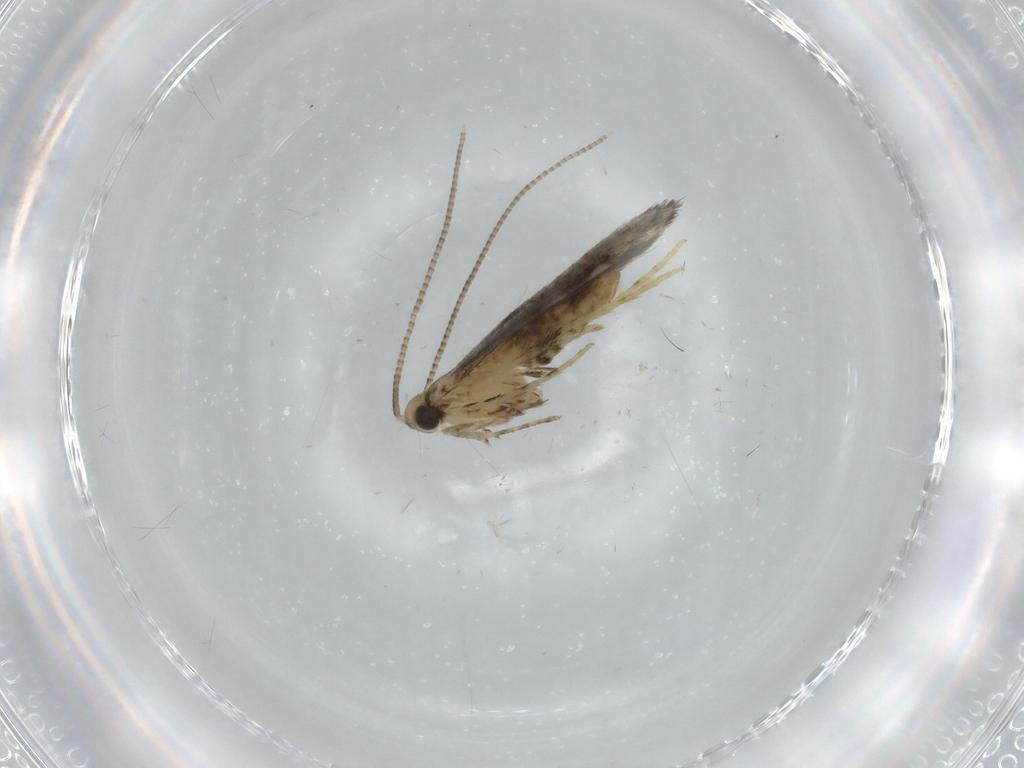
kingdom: Animalia
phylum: Arthropoda
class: Insecta
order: Lepidoptera
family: Gracillariidae
